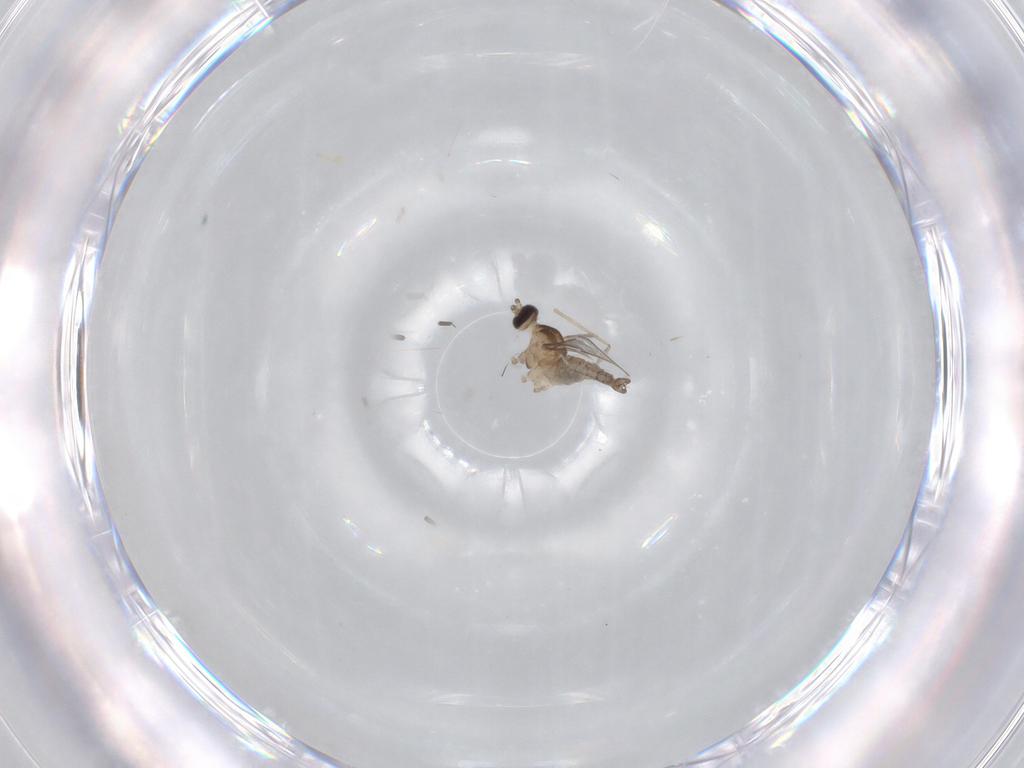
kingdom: Animalia
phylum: Arthropoda
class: Insecta
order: Diptera
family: Cecidomyiidae
